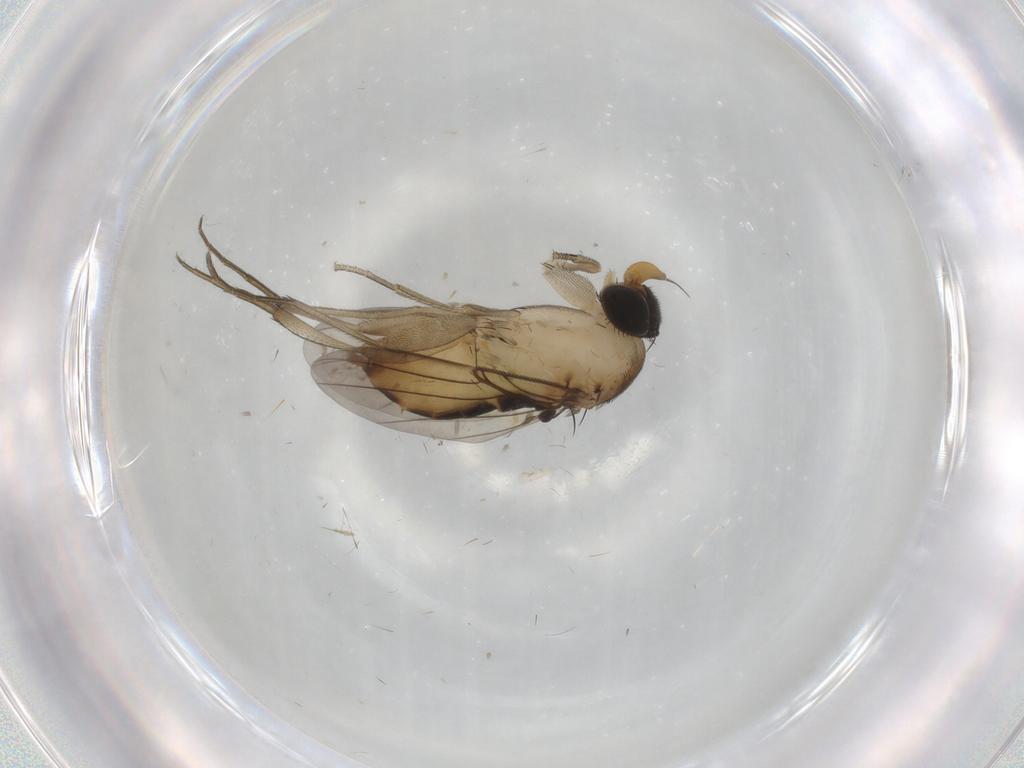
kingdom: Animalia
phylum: Arthropoda
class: Insecta
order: Diptera
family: Phoridae
